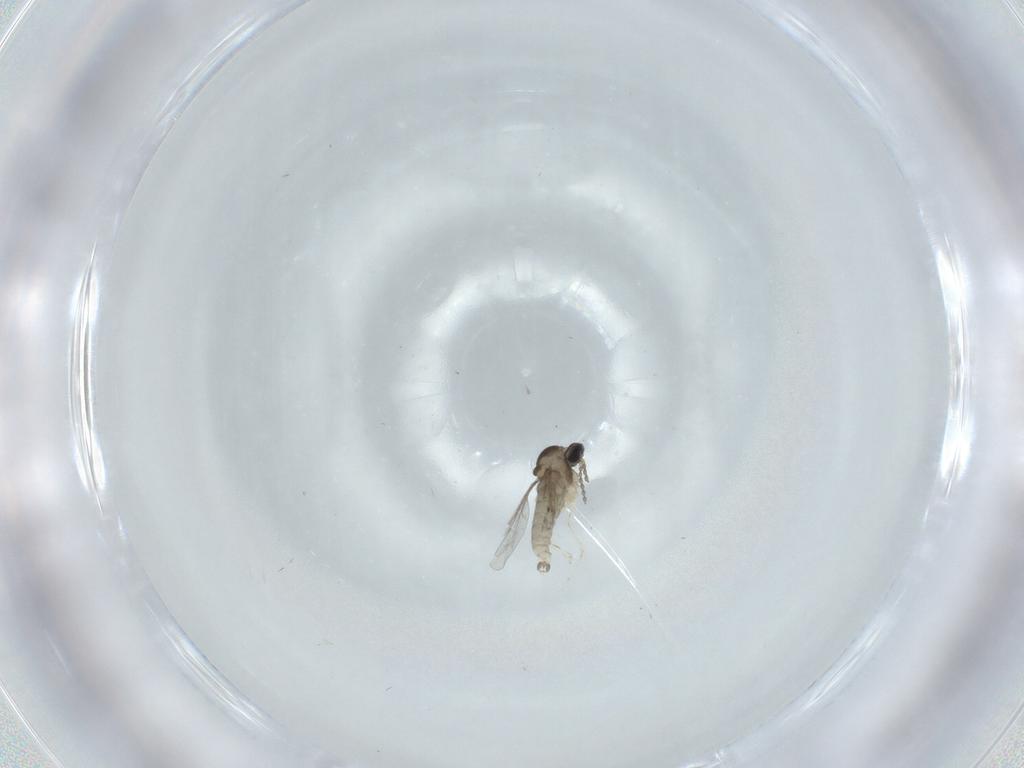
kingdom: Animalia
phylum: Arthropoda
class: Insecta
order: Diptera
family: Cecidomyiidae
